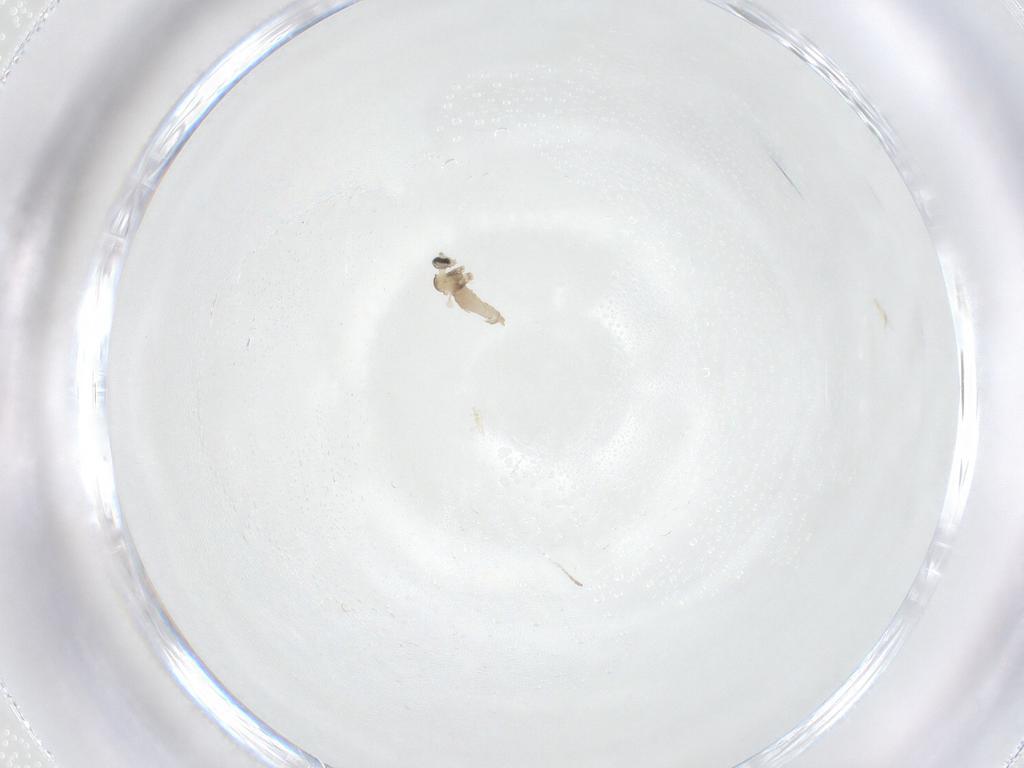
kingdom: Animalia
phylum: Arthropoda
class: Insecta
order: Diptera
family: Cecidomyiidae
